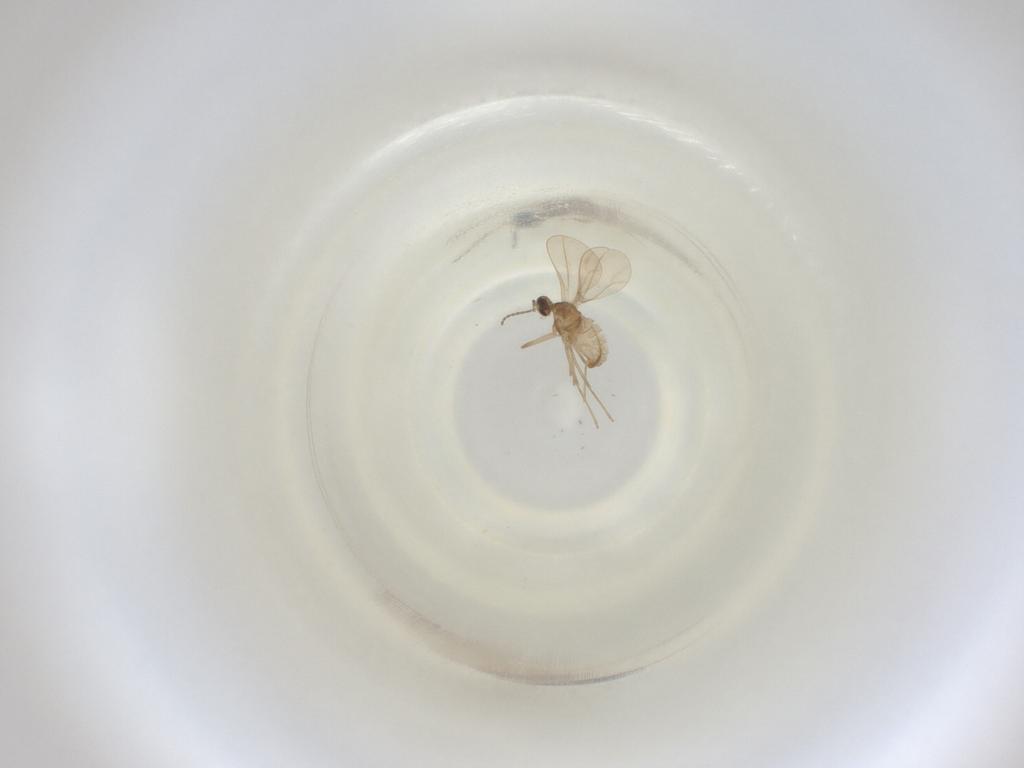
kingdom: Animalia
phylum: Arthropoda
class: Insecta
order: Diptera
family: Cecidomyiidae
